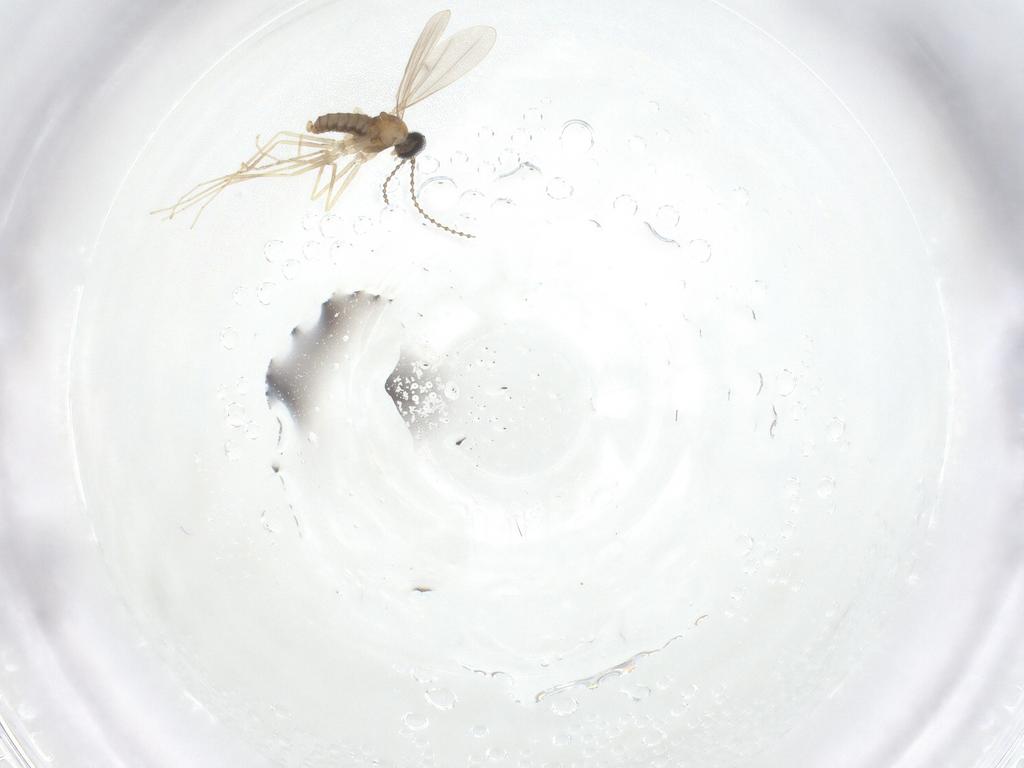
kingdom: Animalia
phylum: Arthropoda
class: Insecta
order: Diptera
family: Cecidomyiidae
